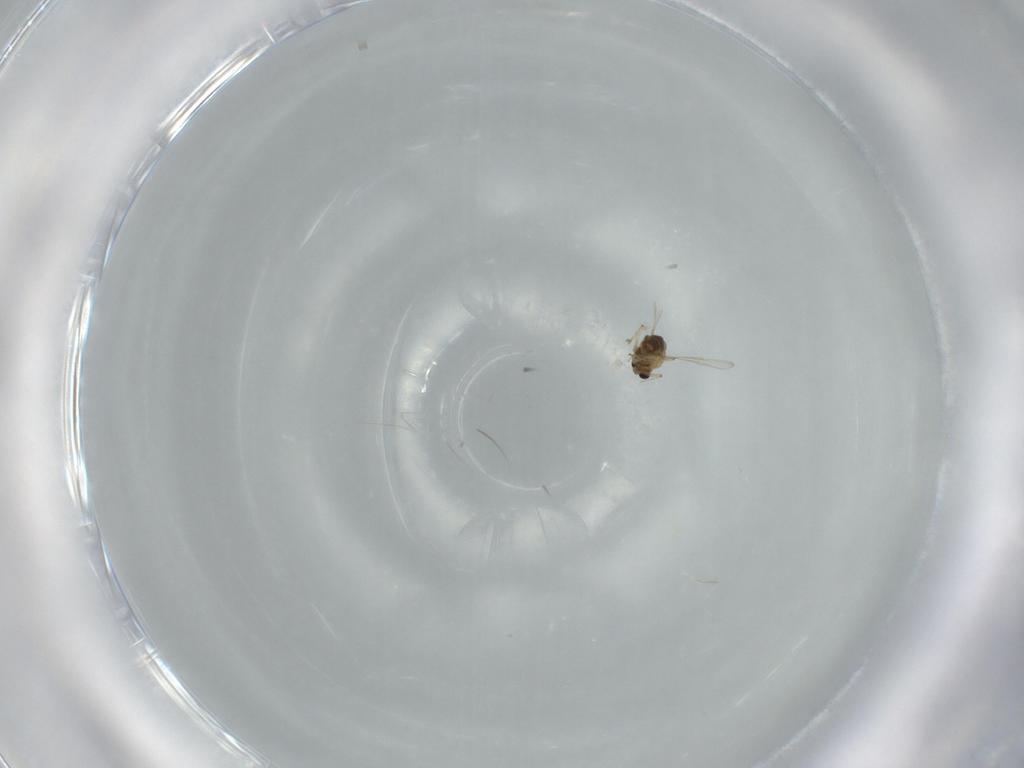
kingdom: Animalia
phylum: Arthropoda
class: Insecta
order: Diptera
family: Chironomidae
